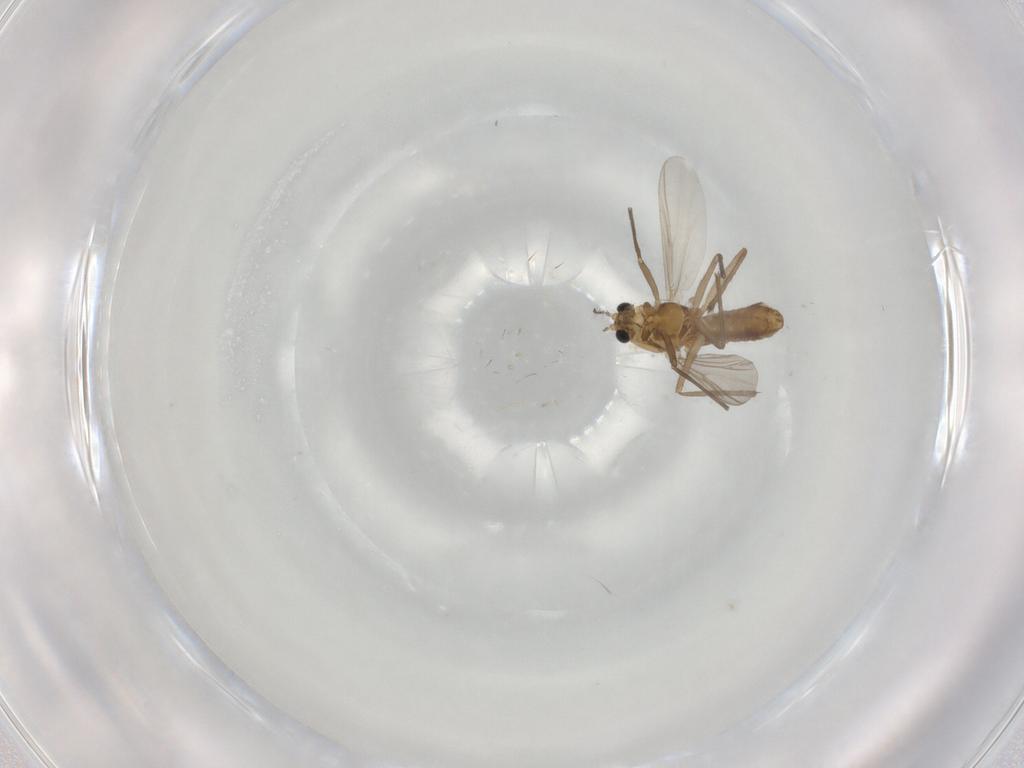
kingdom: Animalia
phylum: Arthropoda
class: Insecta
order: Diptera
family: Chironomidae
